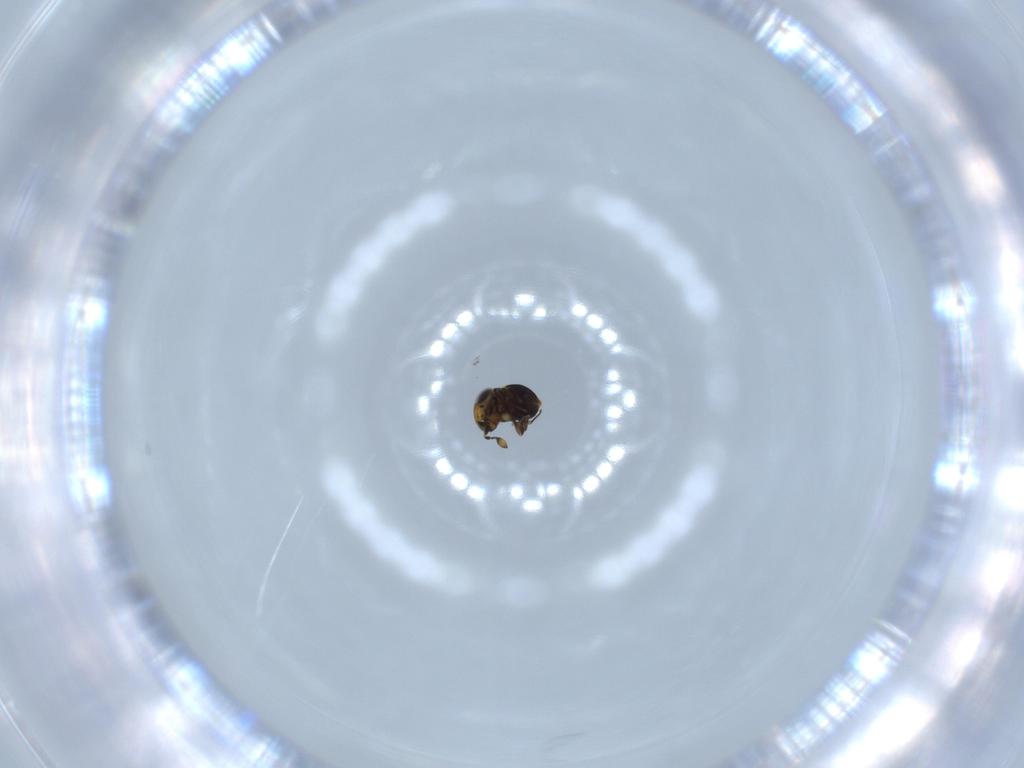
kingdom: Animalia
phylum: Arthropoda
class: Insecta
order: Hymenoptera
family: Scelionidae
